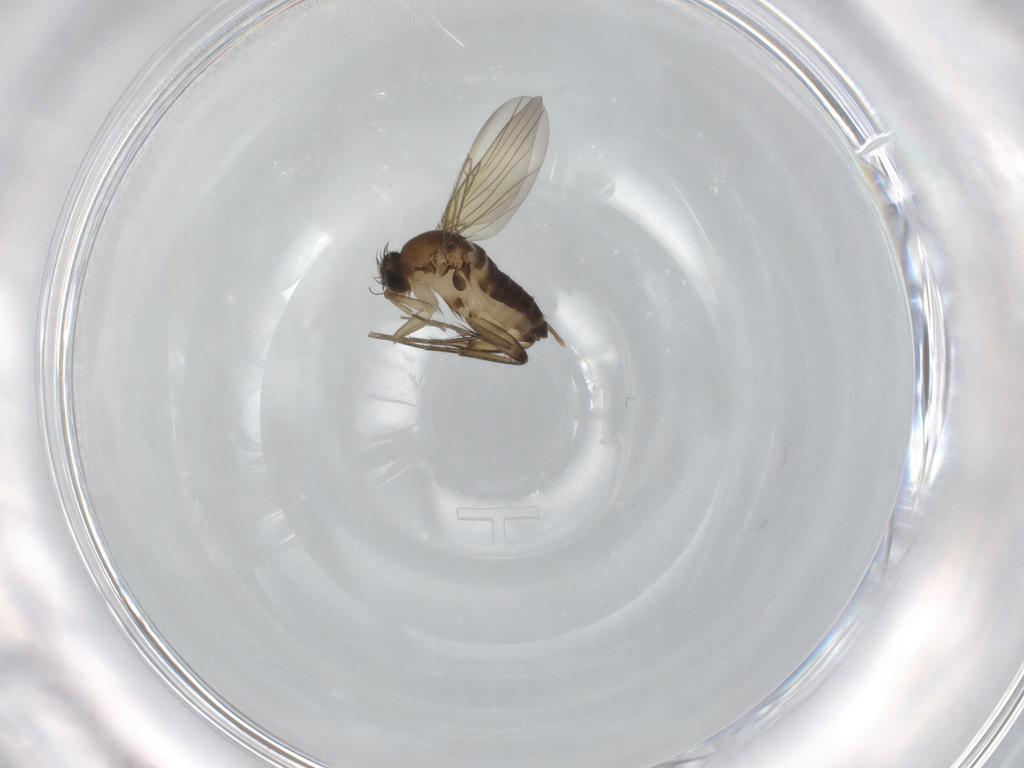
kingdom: Animalia
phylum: Arthropoda
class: Insecta
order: Diptera
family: Phoridae
